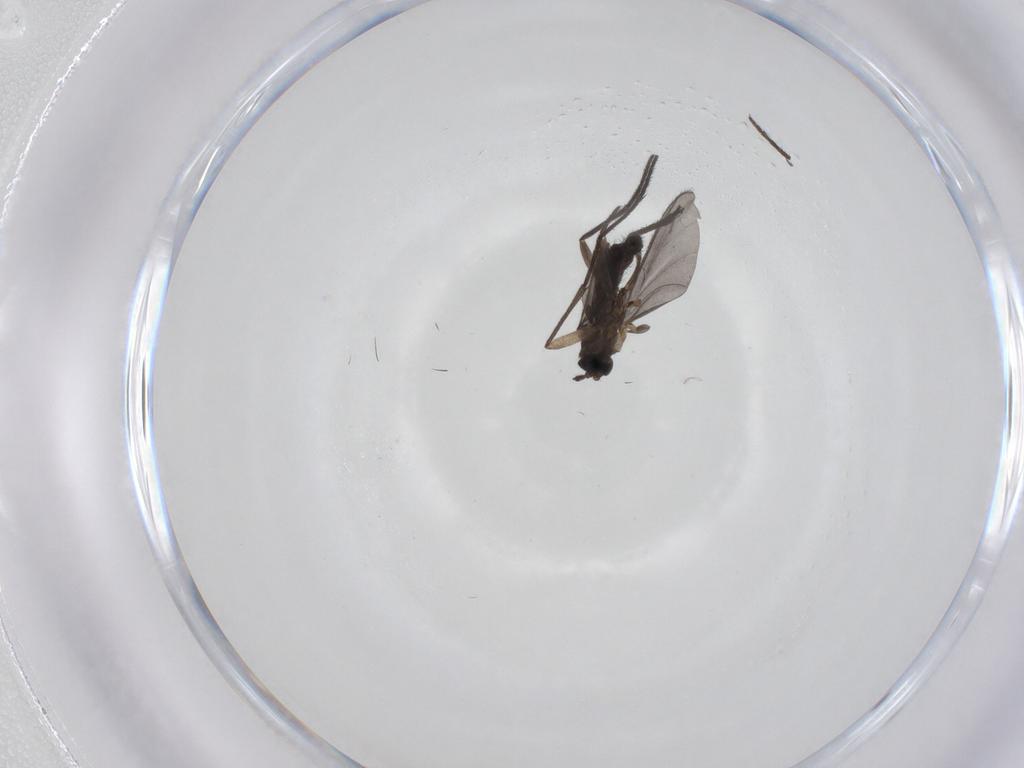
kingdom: Animalia
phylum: Arthropoda
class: Insecta
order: Diptera
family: Sciaridae
